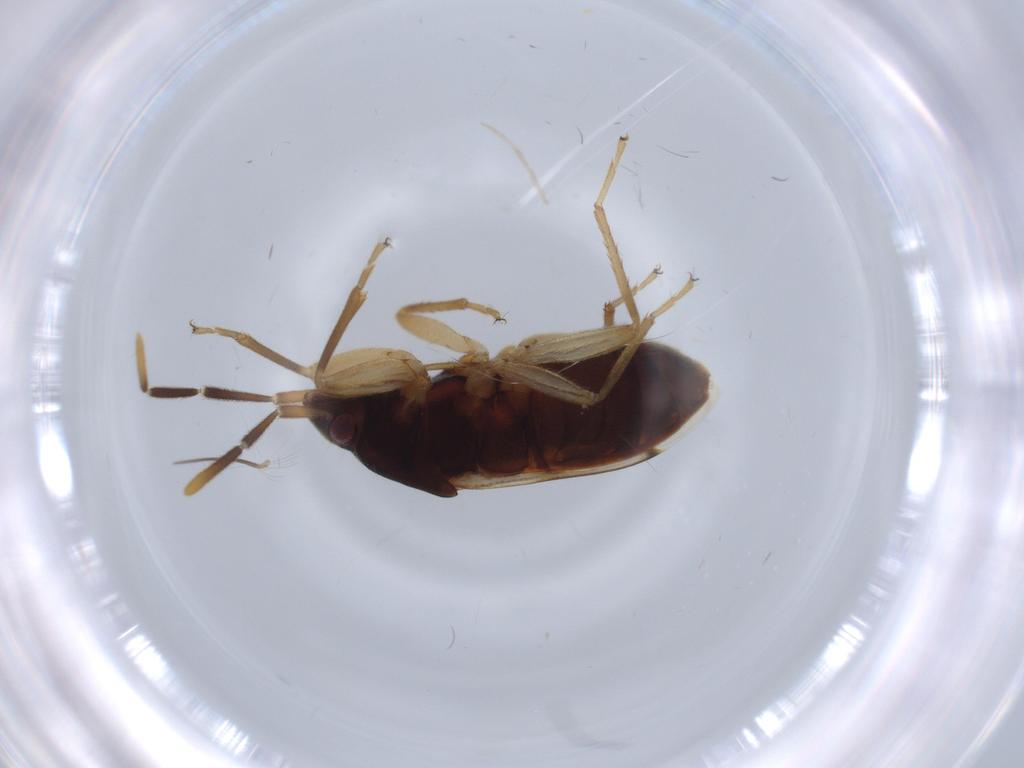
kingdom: Animalia
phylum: Arthropoda
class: Insecta
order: Hemiptera
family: Rhyparochromidae
